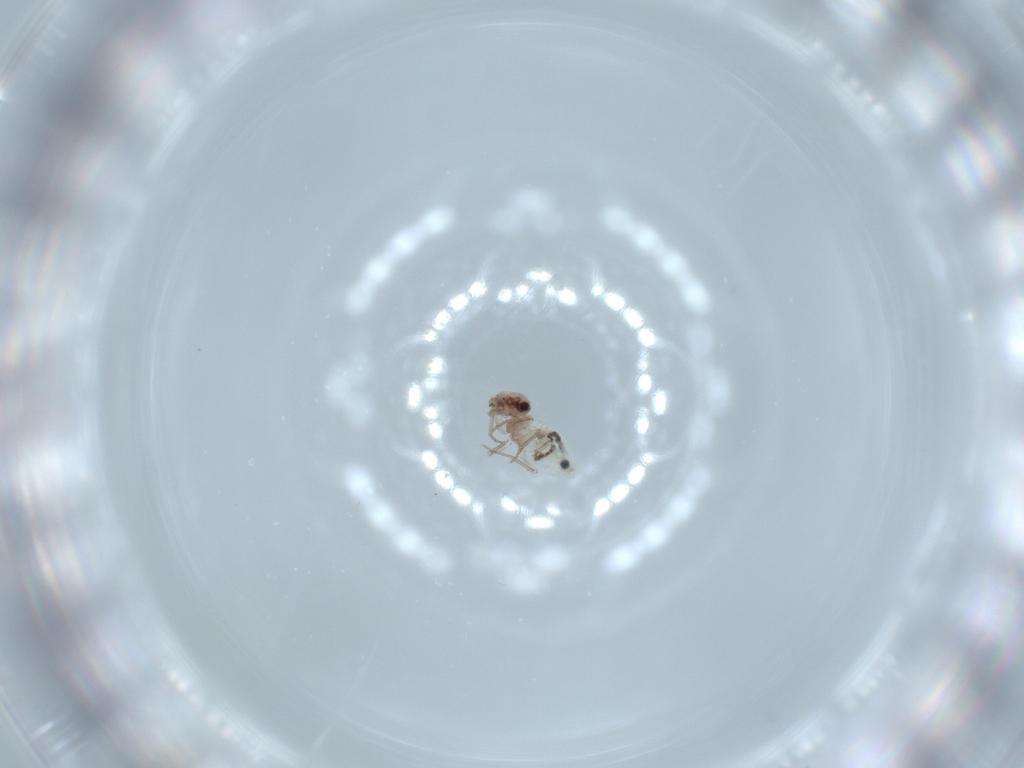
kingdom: Animalia
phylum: Arthropoda
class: Insecta
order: Psocodea
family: Lepidopsocidae
